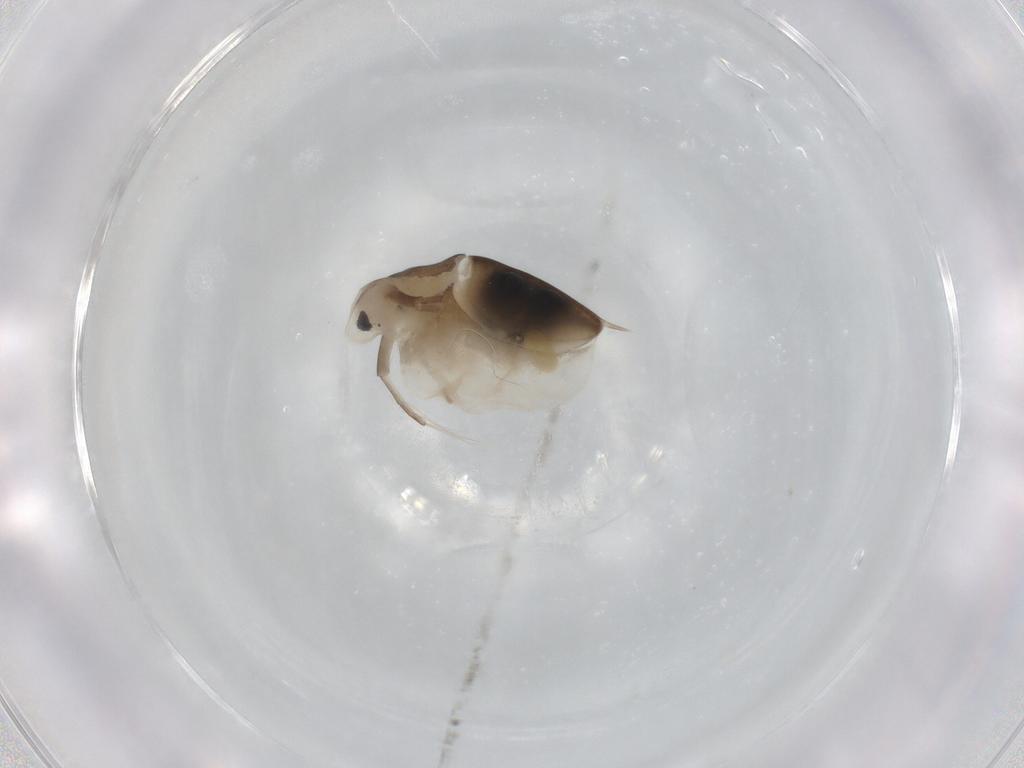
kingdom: Animalia
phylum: Arthropoda
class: Branchiopoda
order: Diplostraca
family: Daphniidae
